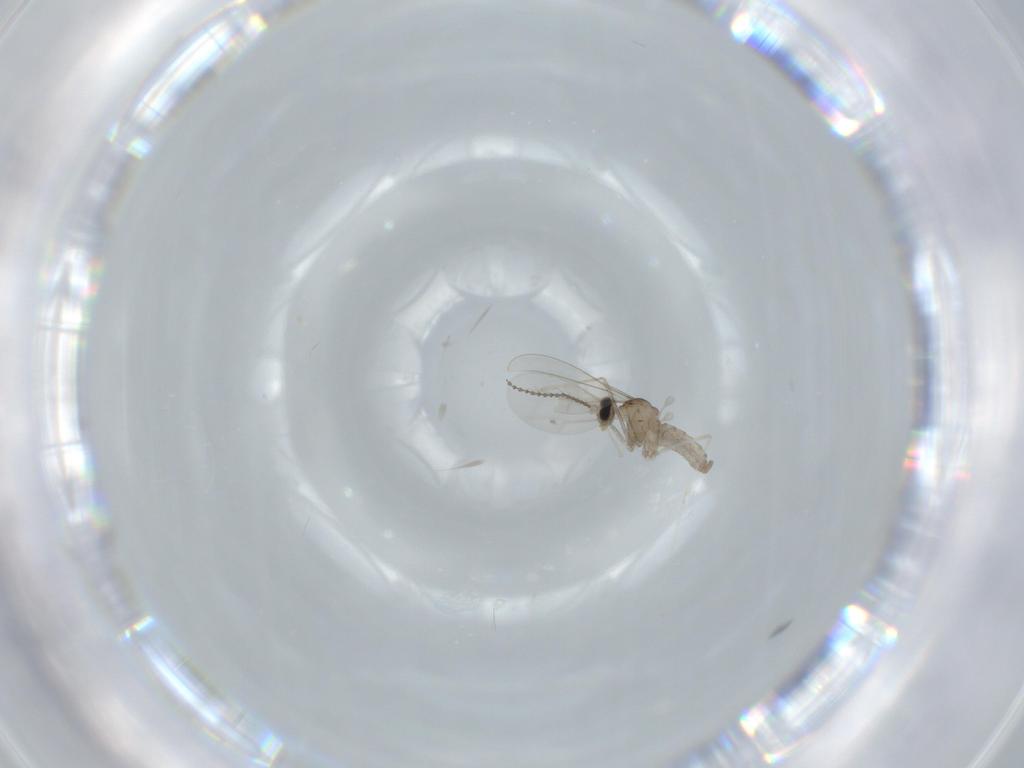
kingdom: Animalia
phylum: Arthropoda
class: Insecta
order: Diptera
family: Cecidomyiidae
